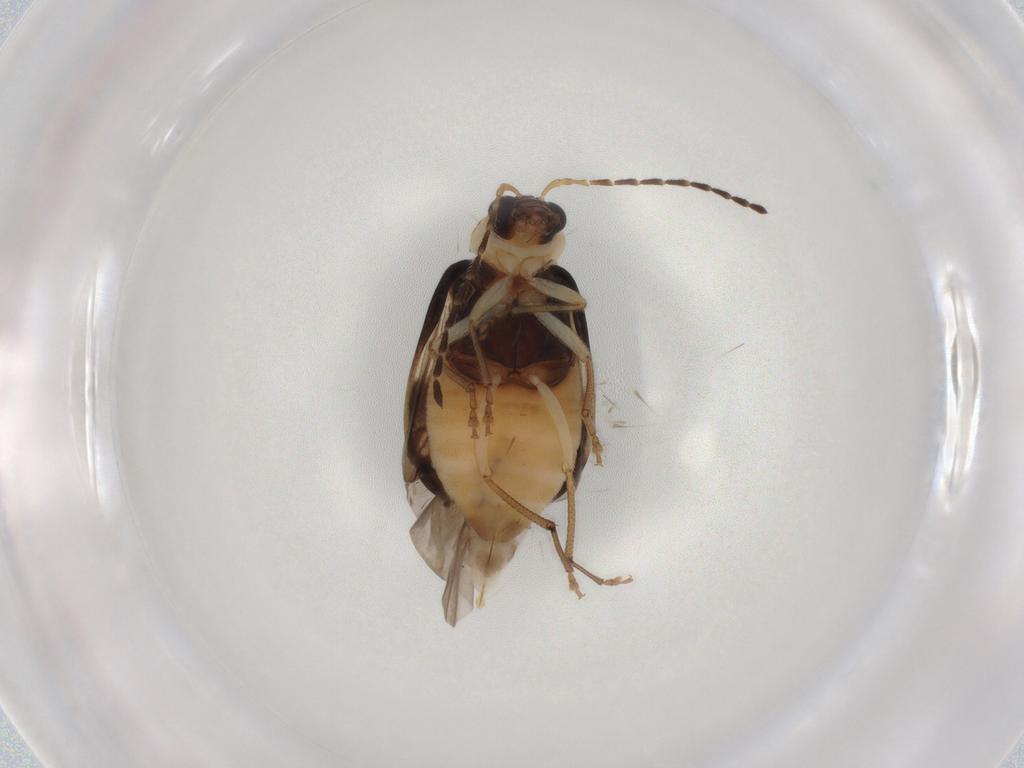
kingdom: Animalia
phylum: Arthropoda
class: Insecta
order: Coleoptera
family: Chrysomelidae
